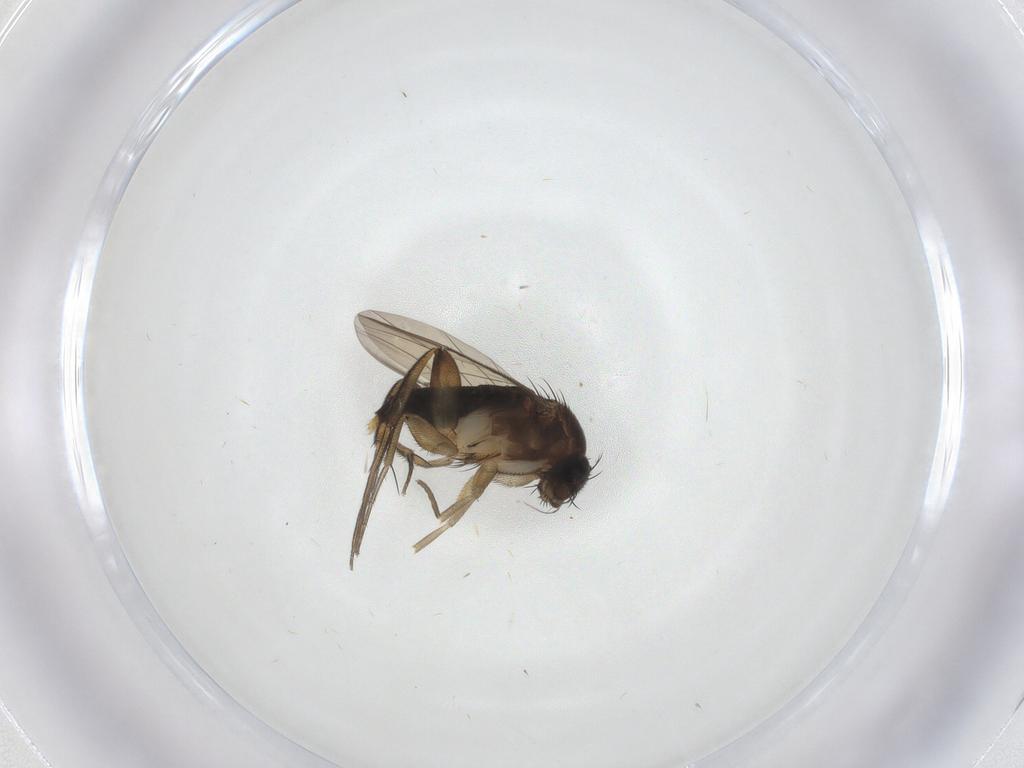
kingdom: Animalia
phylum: Arthropoda
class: Insecta
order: Diptera
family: Phoridae
